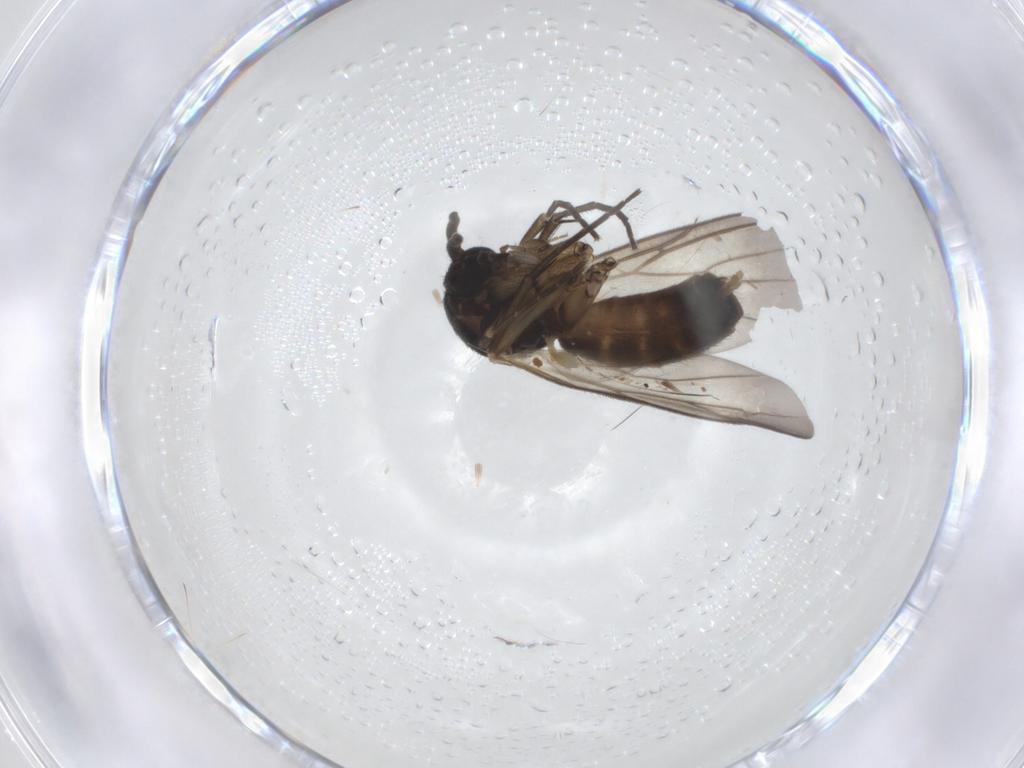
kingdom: Animalia
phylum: Arthropoda
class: Insecta
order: Diptera
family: Mycetophilidae
